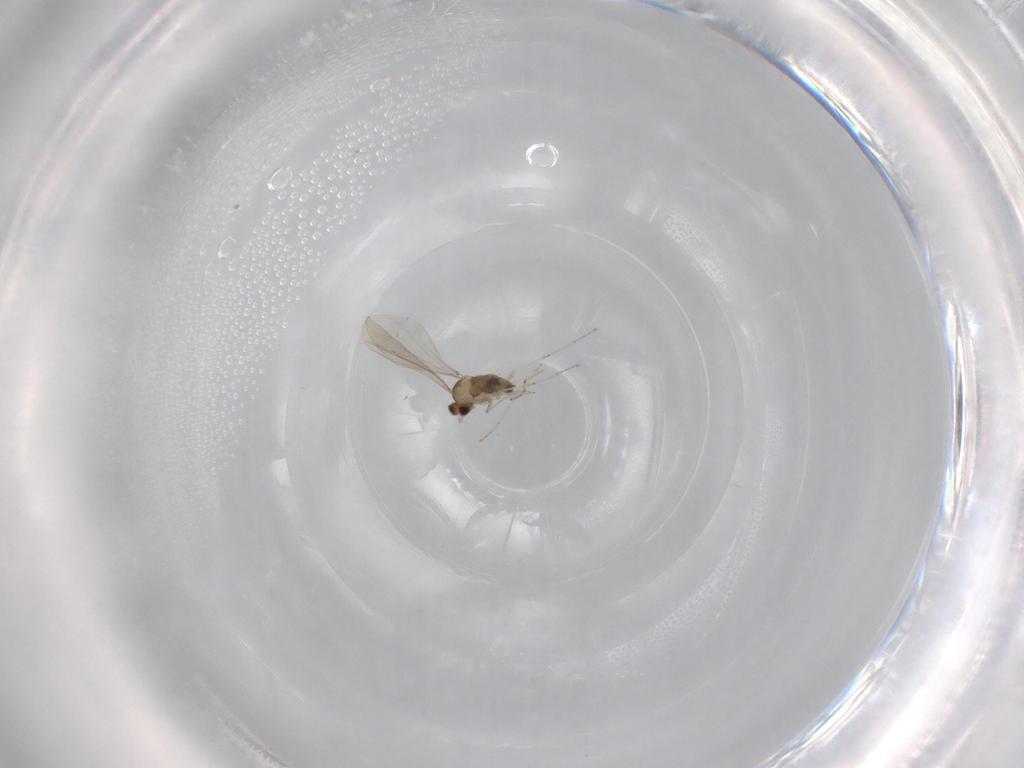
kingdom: Animalia
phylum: Arthropoda
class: Insecta
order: Diptera
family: Cecidomyiidae
